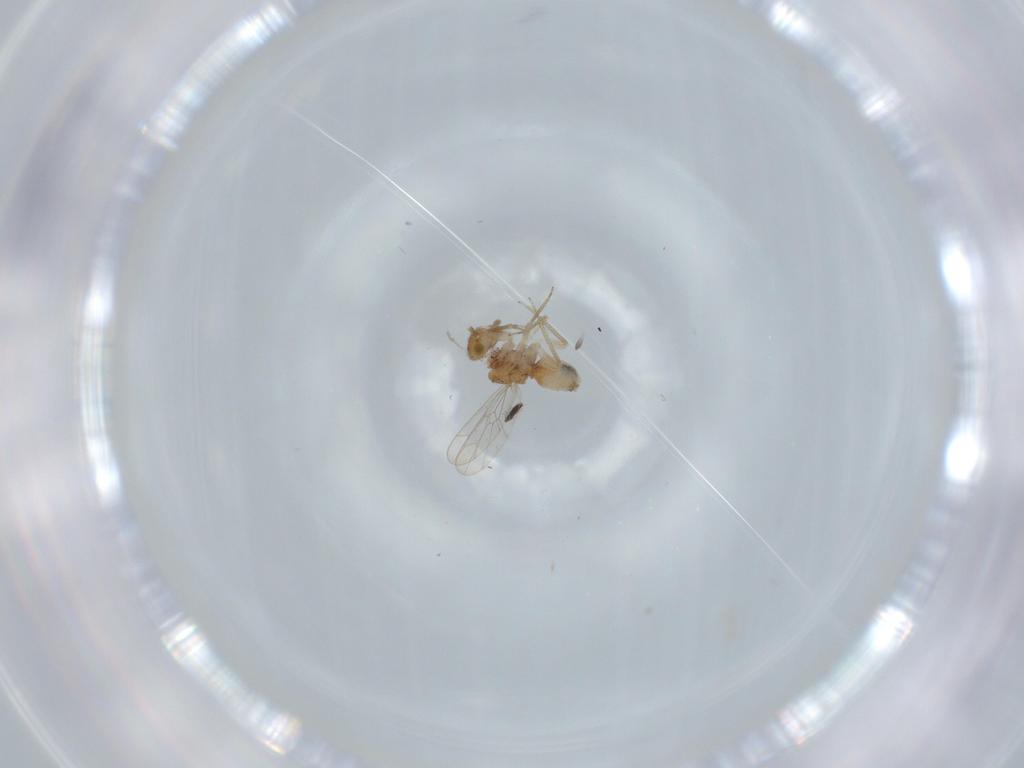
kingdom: Animalia
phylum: Arthropoda
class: Insecta
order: Psocodea
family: Ectopsocidae
